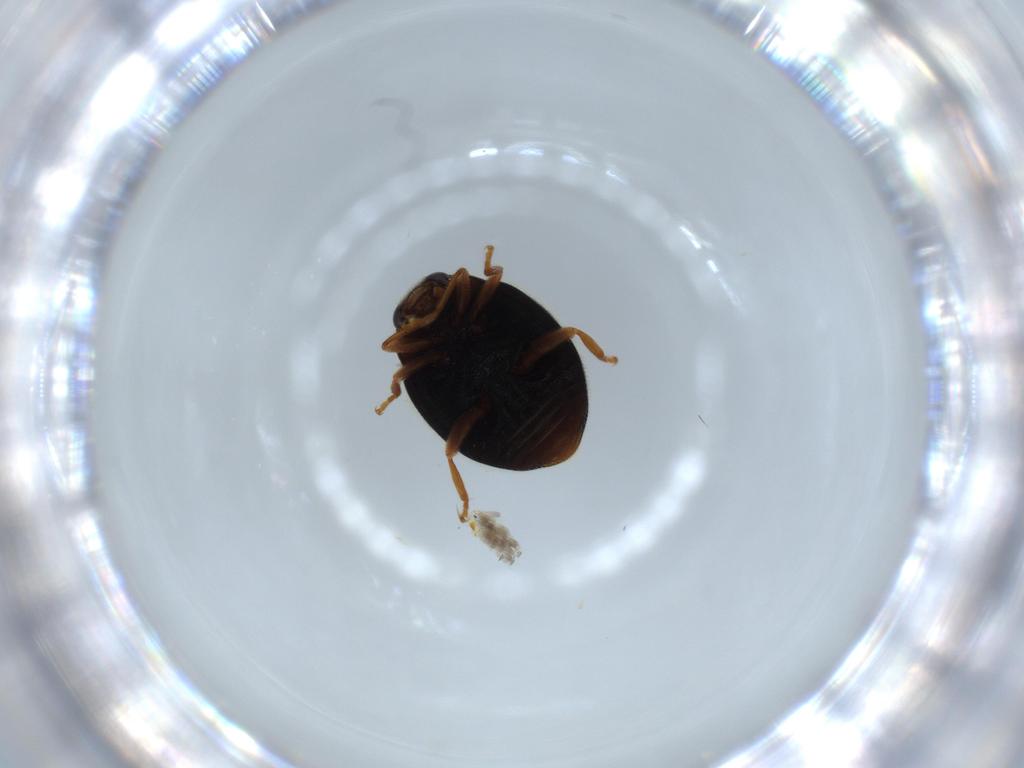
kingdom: Animalia
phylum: Arthropoda
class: Insecta
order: Coleoptera
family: Coccinellidae
